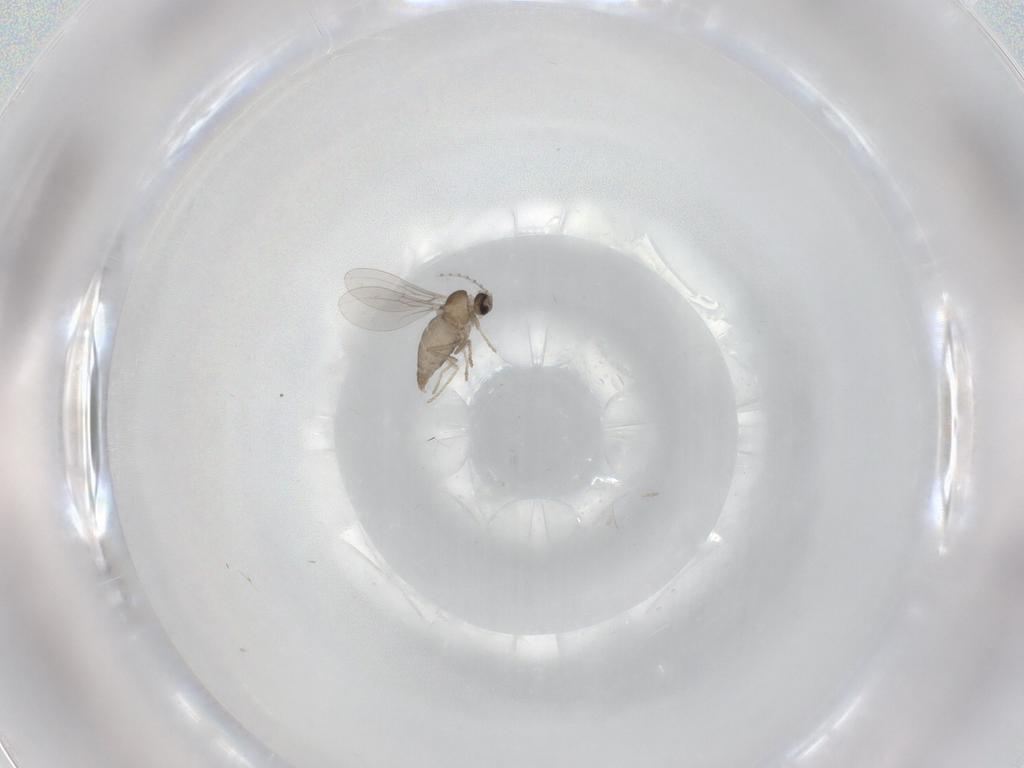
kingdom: Animalia
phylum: Arthropoda
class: Insecta
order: Diptera
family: Cecidomyiidae
